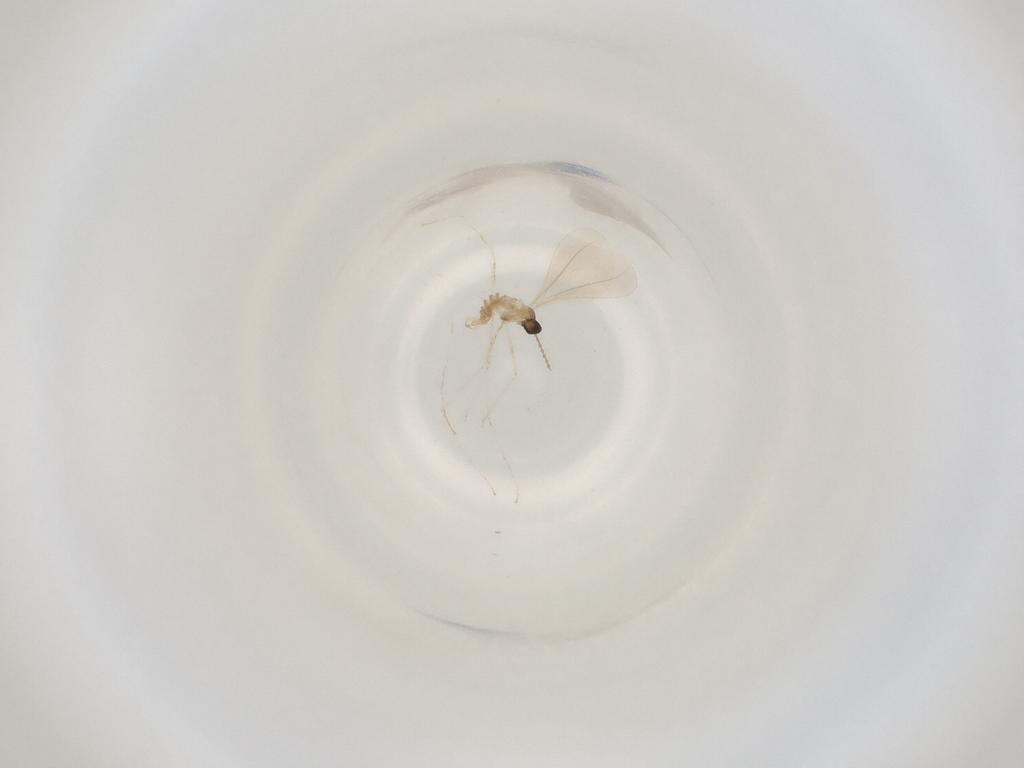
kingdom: Animalia
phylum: Arthropoda
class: Insecta
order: Diptera
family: Cecidomyiidae
